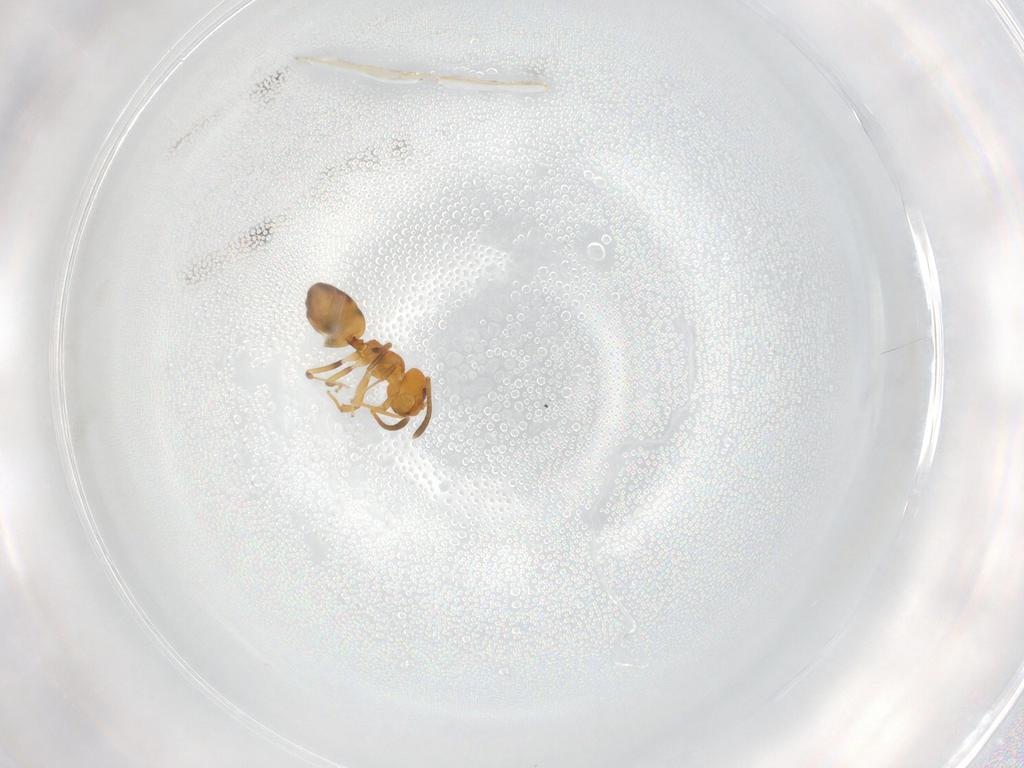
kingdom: Animalia
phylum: Arthropoda
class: Insecta
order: Hymenoptera
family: Formicidae
